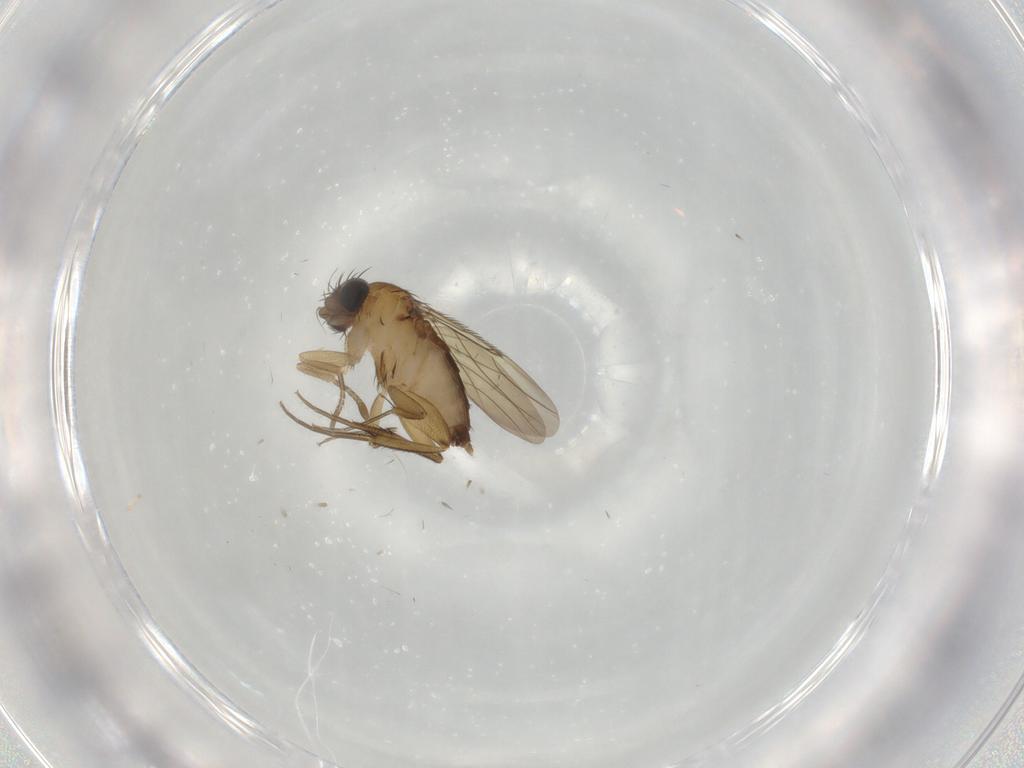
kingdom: Animalia
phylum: Arthropoda
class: Insecta
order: Diptera
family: Phoridae
